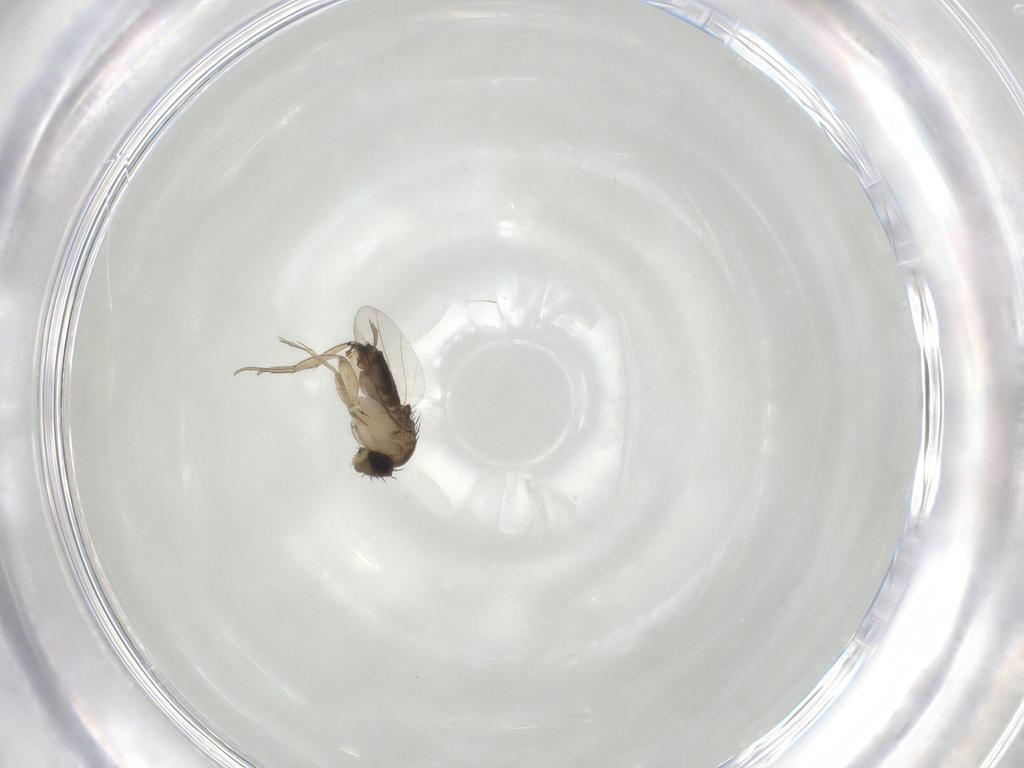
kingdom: Animalia
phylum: Arthropoda
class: Insecta
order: Diptera
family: Phoridae
